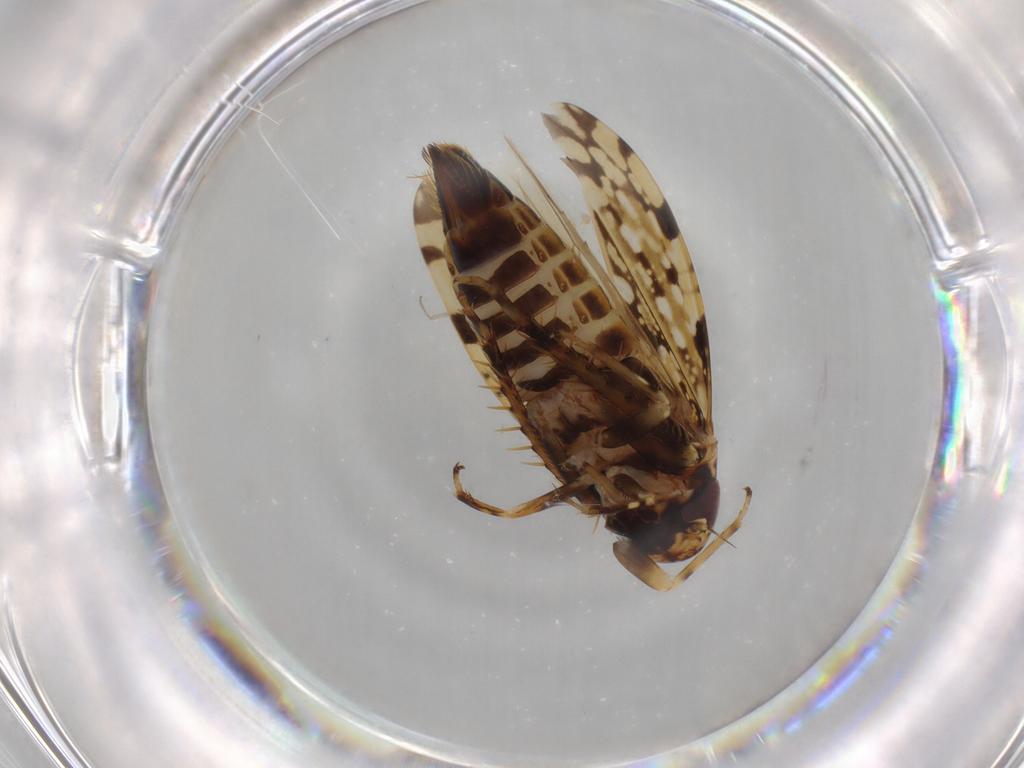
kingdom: Animalia
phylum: Arthropoda
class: Insecta
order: Hemiptera
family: Cicadellidae
